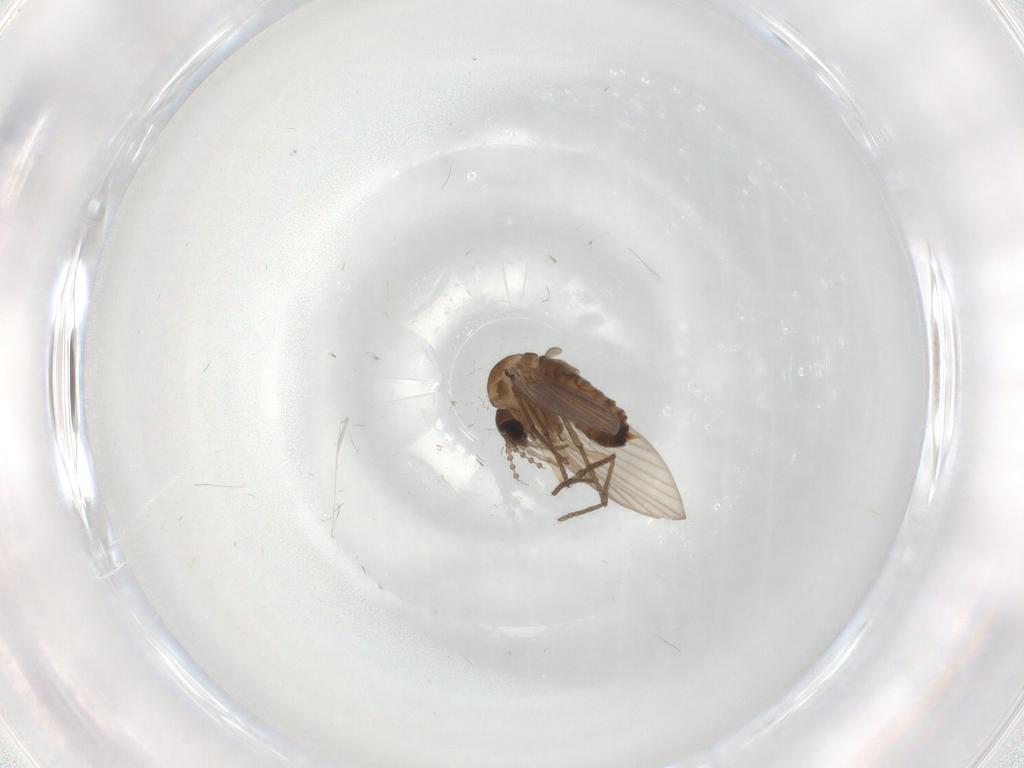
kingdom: Animalia
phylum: Arthropoda
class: Insecta
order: Diptera
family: Psychodidae
